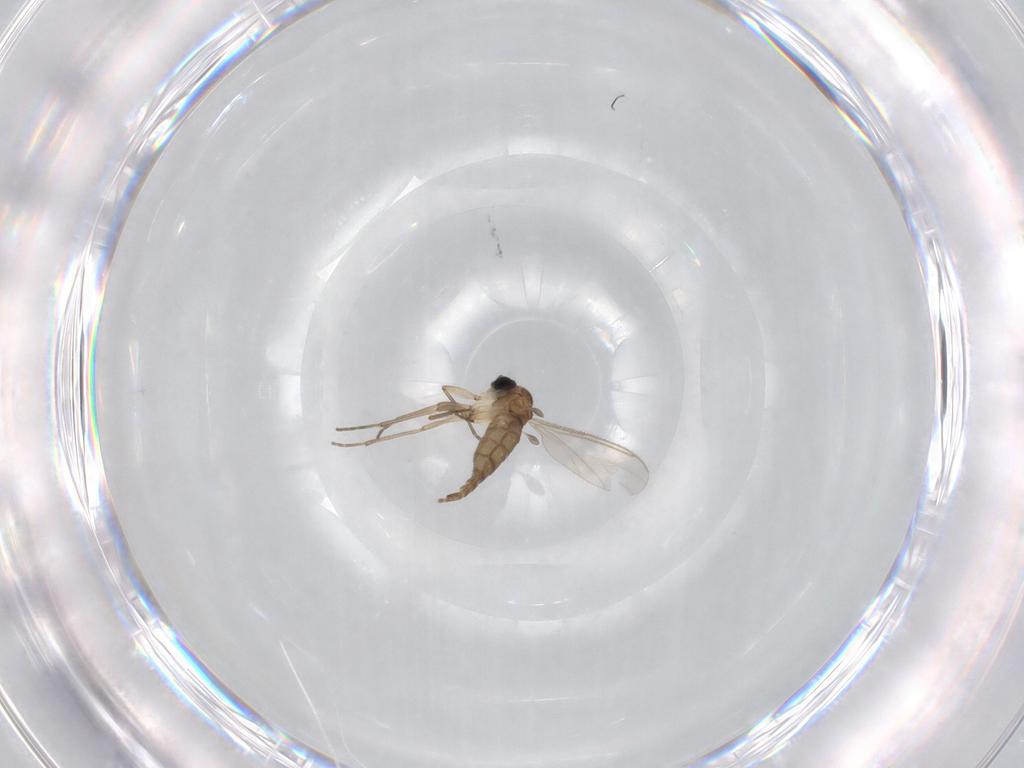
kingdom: Animalia
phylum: Arthropoda
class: Insecta
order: Diptera
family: Sciaridae
